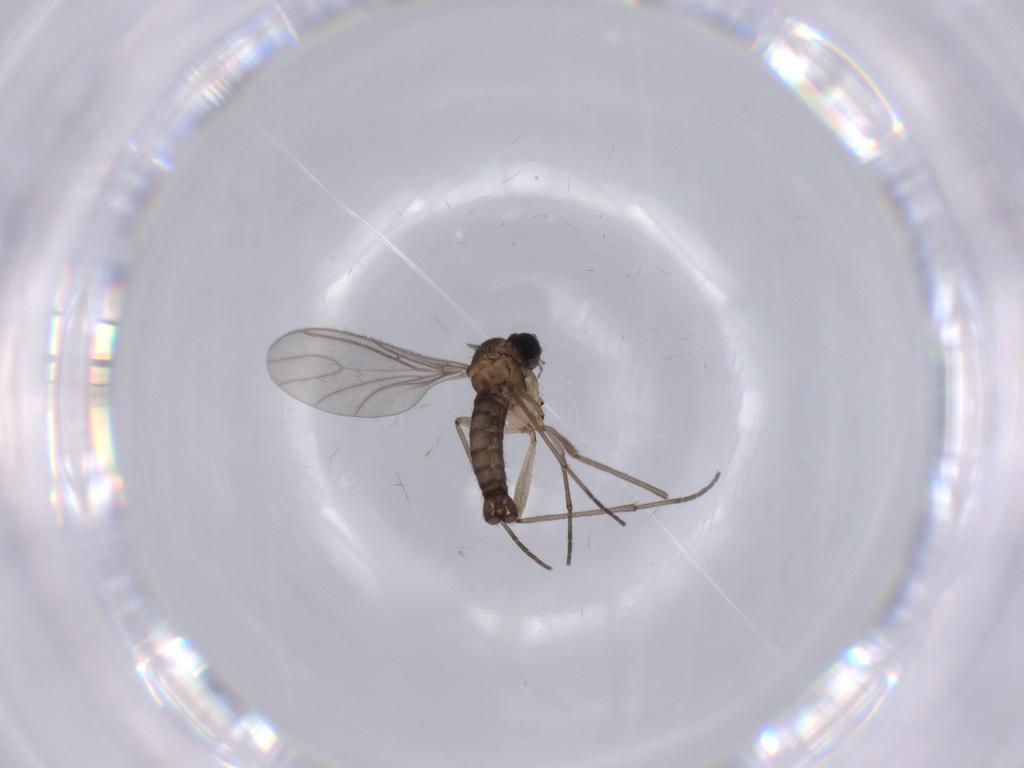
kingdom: Animalia
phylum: Arthropoda
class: Insecta
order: Diptera
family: Sciaridae
